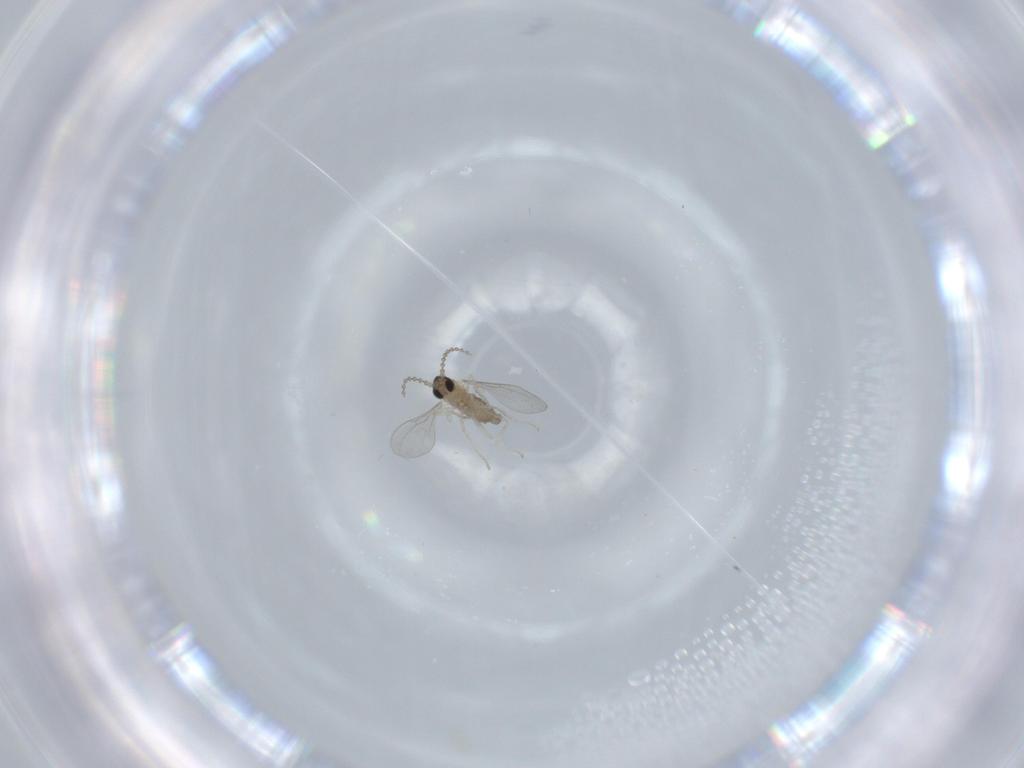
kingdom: Animalia
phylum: Arthropoda
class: Insecta
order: Diptera
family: Cecidomyiidae
